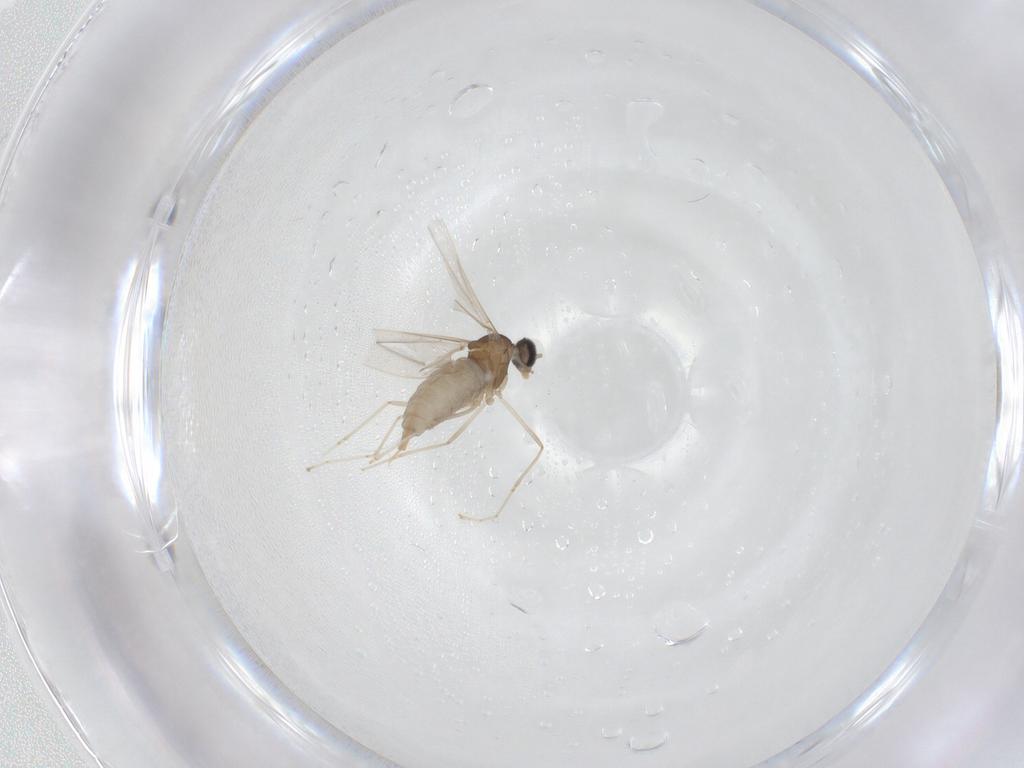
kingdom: Animalia
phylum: Arthropoda
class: Insecta
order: Diptera
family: Cecidomyiidae
